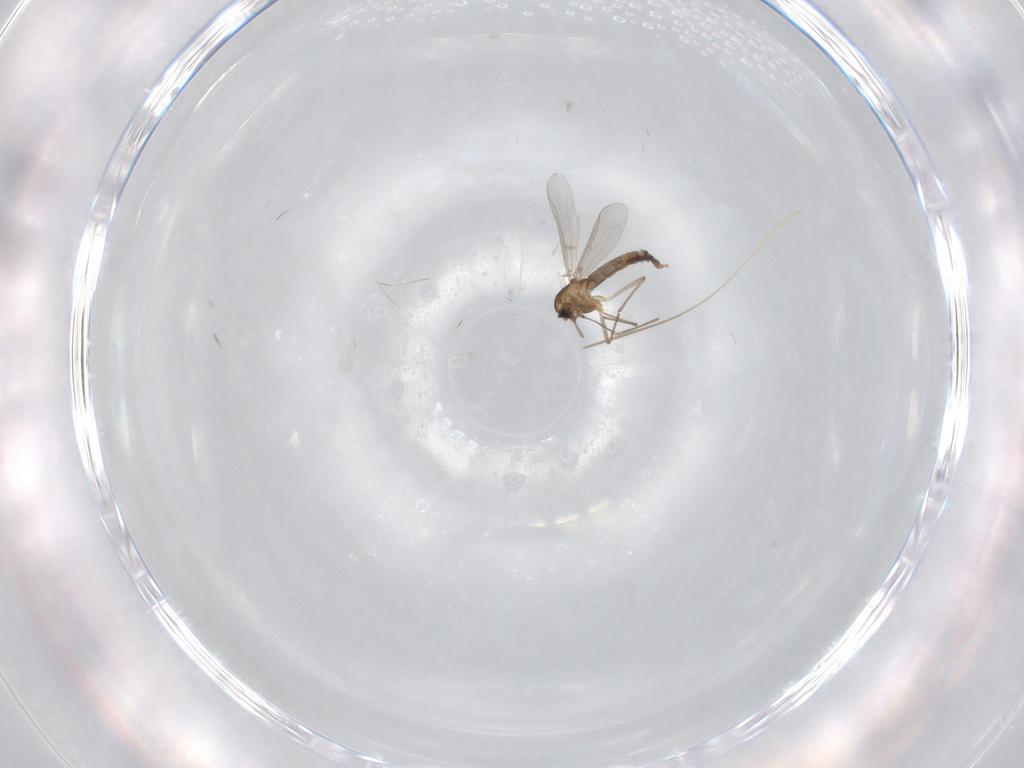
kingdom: Animalia
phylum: Arthropoda
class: Insecta
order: Diptera
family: Chironomidae
